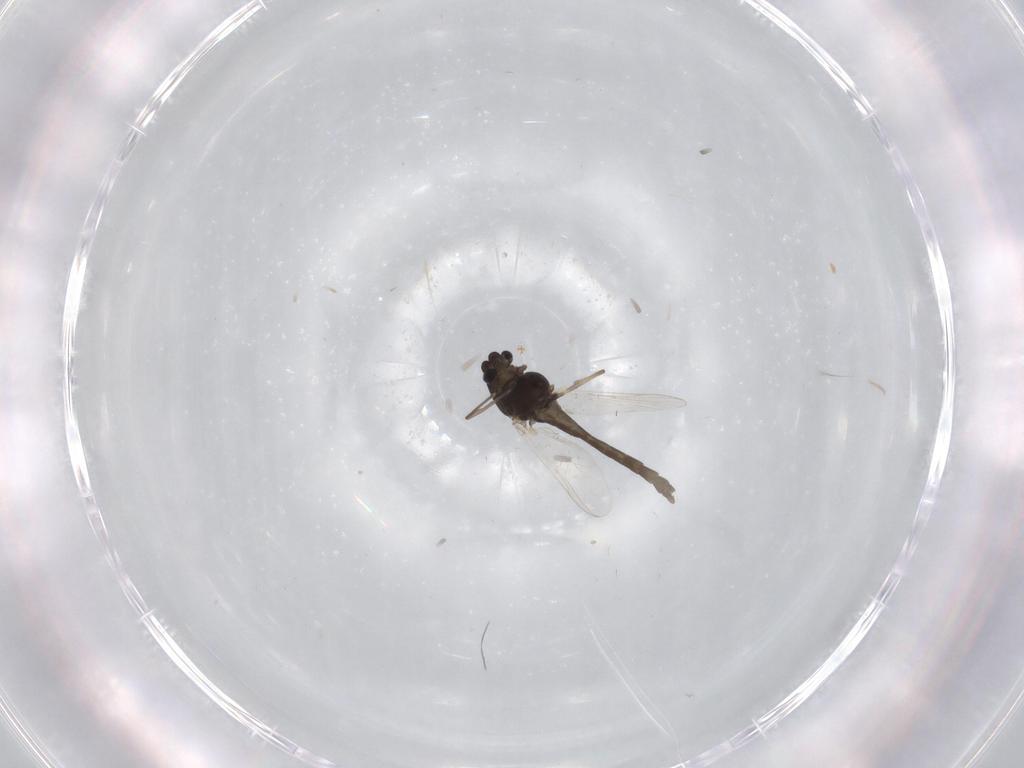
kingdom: Animalia
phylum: Arthropoda
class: Insecta
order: Diptera
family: Chironomidae
